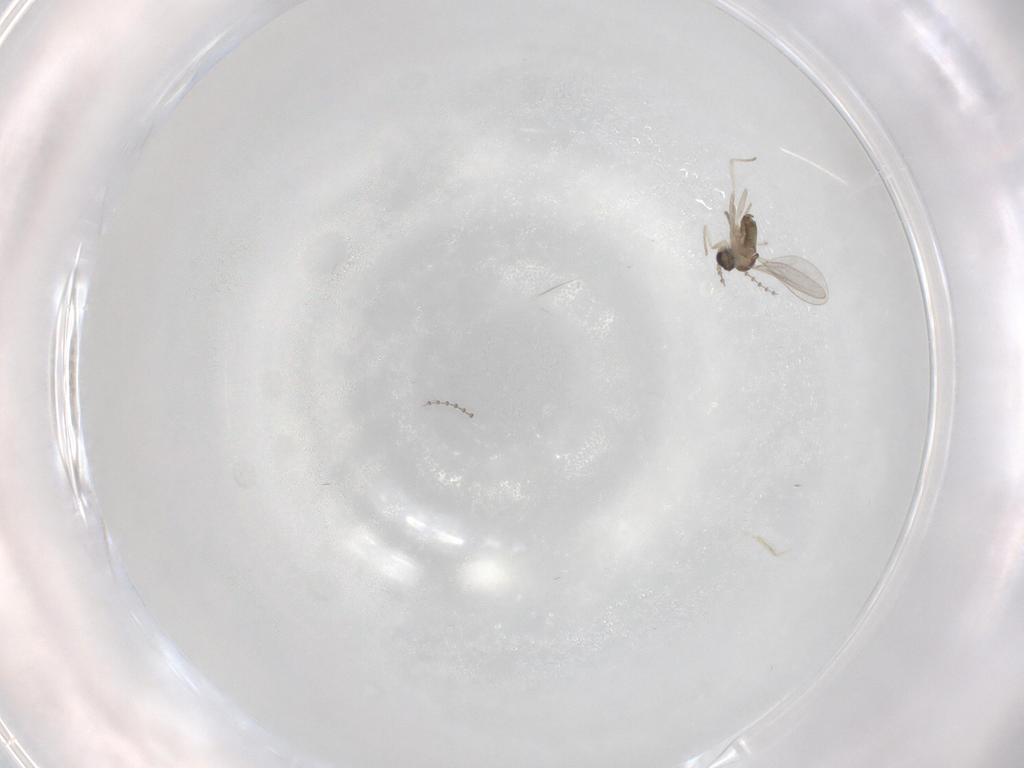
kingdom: Animalia
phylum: Arthropoda
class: Insecta
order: Diptera
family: Cecidomyiidae
